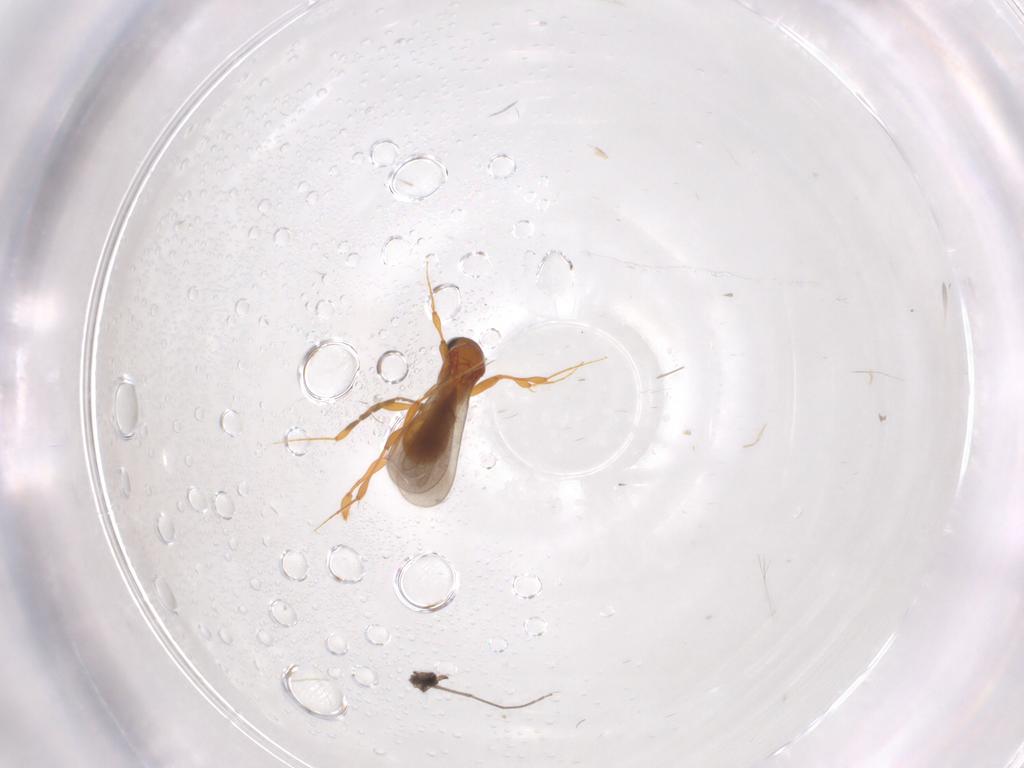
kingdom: Animalia
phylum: Arthropoda
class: Insecta
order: Hymenoptera
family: Platygastridae
